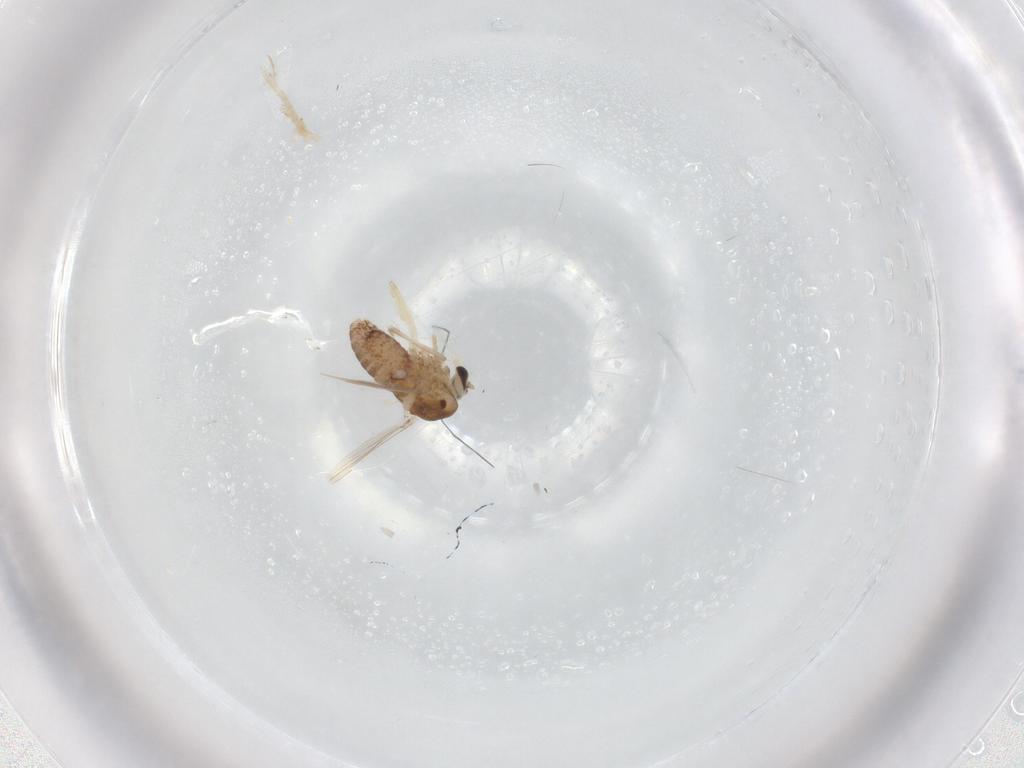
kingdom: Animalia
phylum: Arthropoda
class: Insecta
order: Diptera
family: Chironomidae
